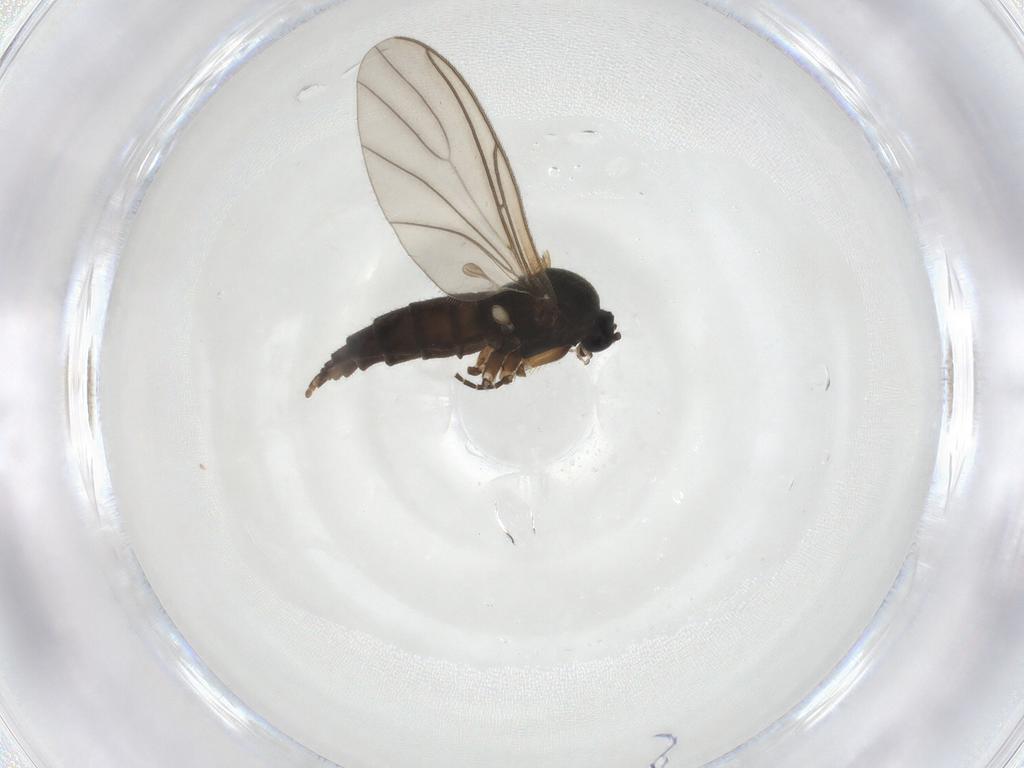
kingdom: Animalia
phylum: Arthropoda
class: Insecta
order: Diptera
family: Sciaridae
